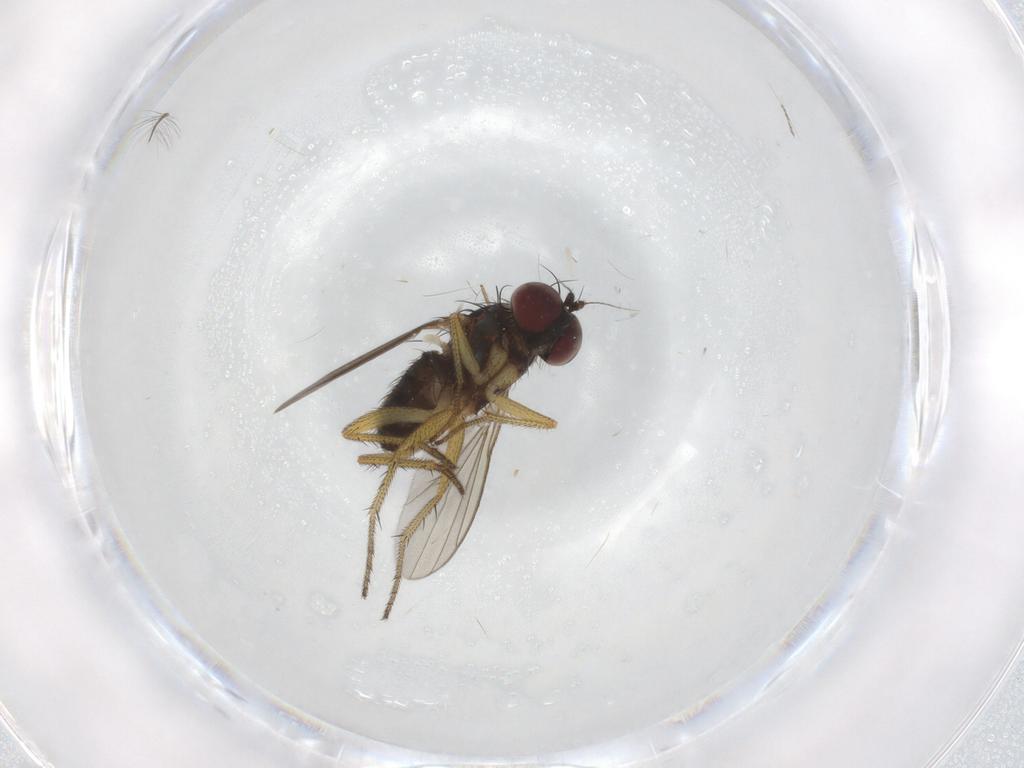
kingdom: Animalia
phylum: Arthropoda
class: Insecta
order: Diptera
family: Sciaridae
